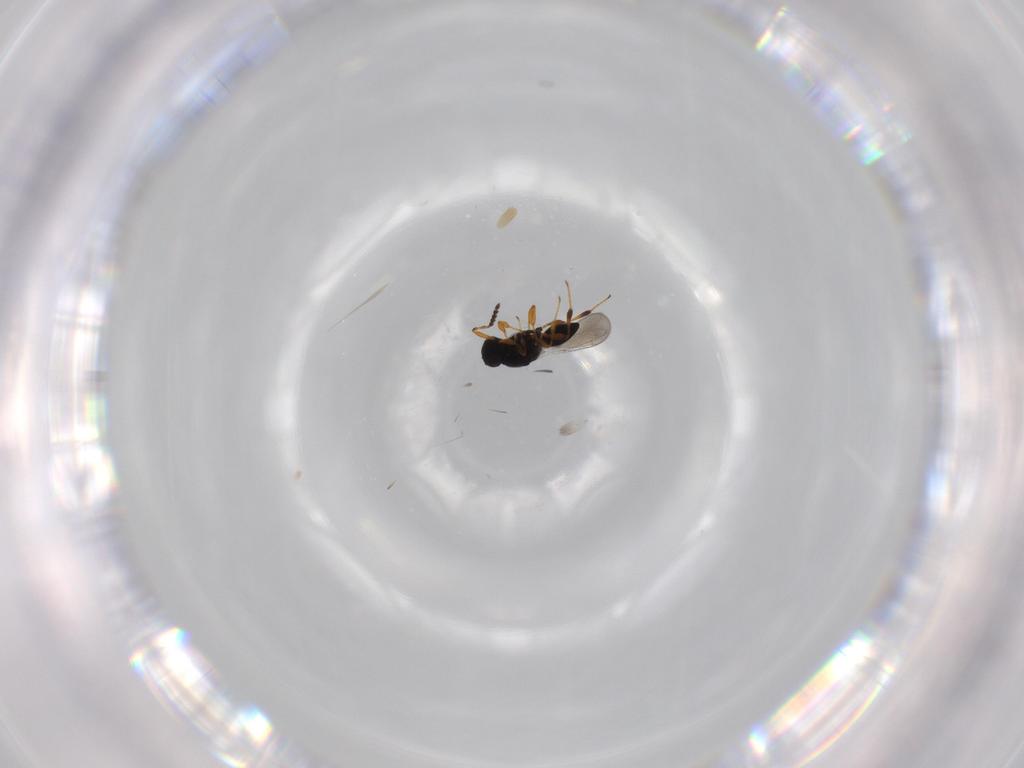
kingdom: Animalia
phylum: Arthropoda
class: Insecta
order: Hymenoptera
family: Platygastridae
